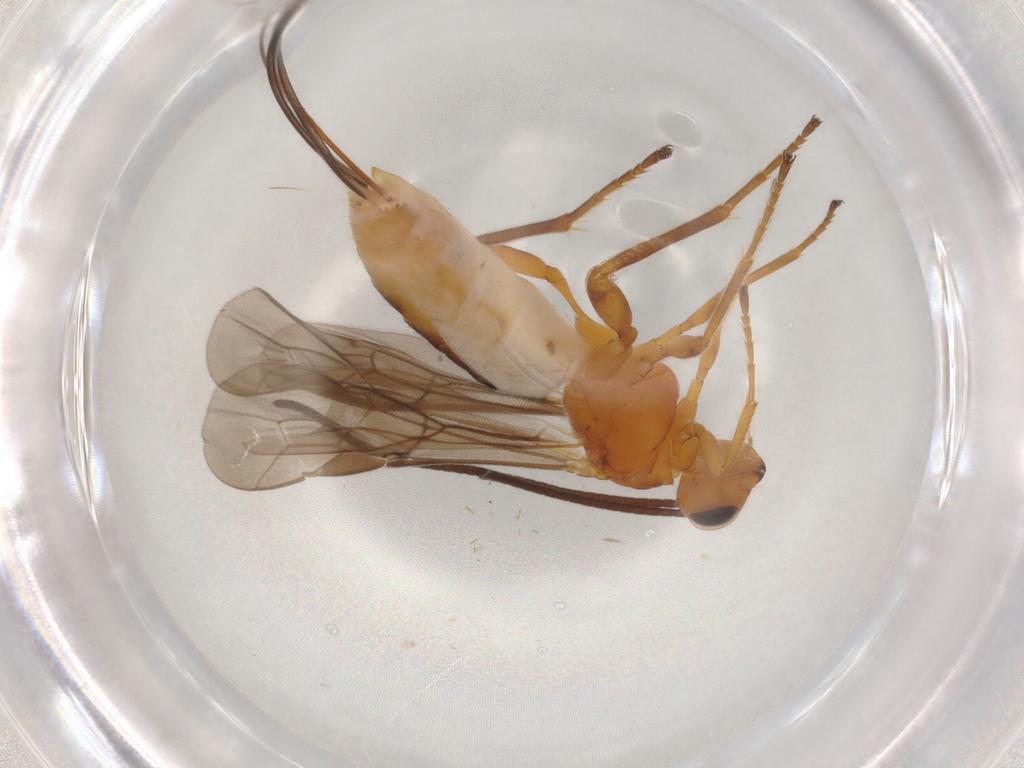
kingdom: Animalia
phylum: Arthropoda
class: Insecta
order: Hymenoptera
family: Braconidae
